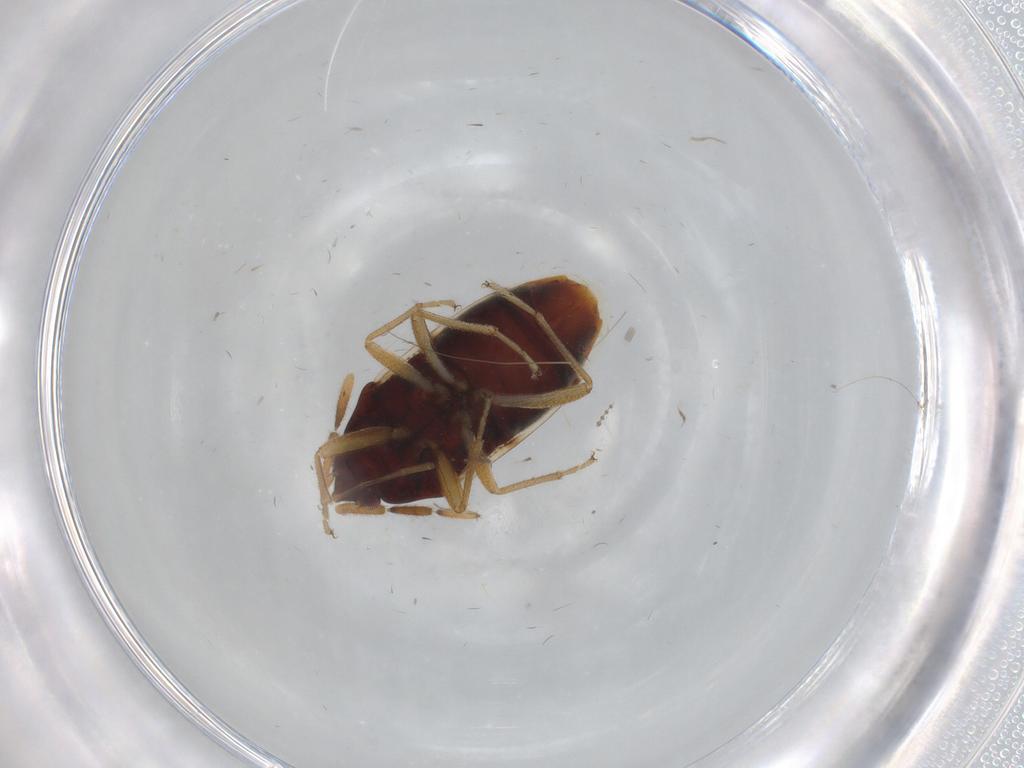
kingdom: Animalia
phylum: Arthropoda
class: Insecta
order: Hemiptera
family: Rhyparochromidae
